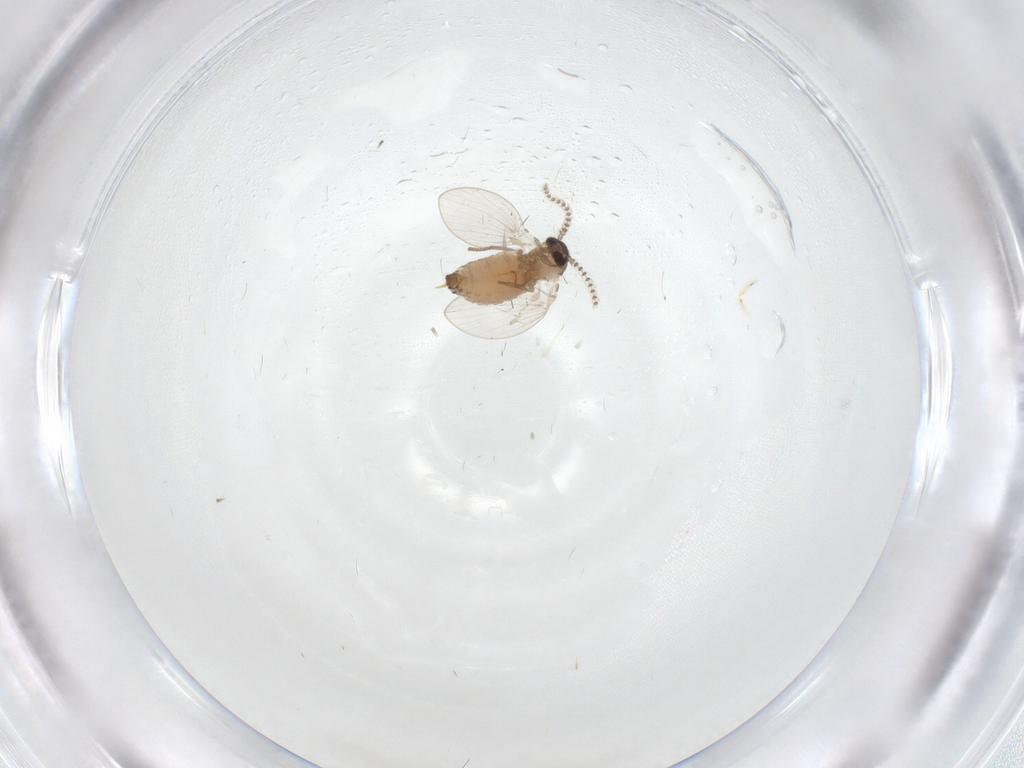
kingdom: Animalia
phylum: Arthropoda
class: Insecta
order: Diptera
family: Psychodidae
